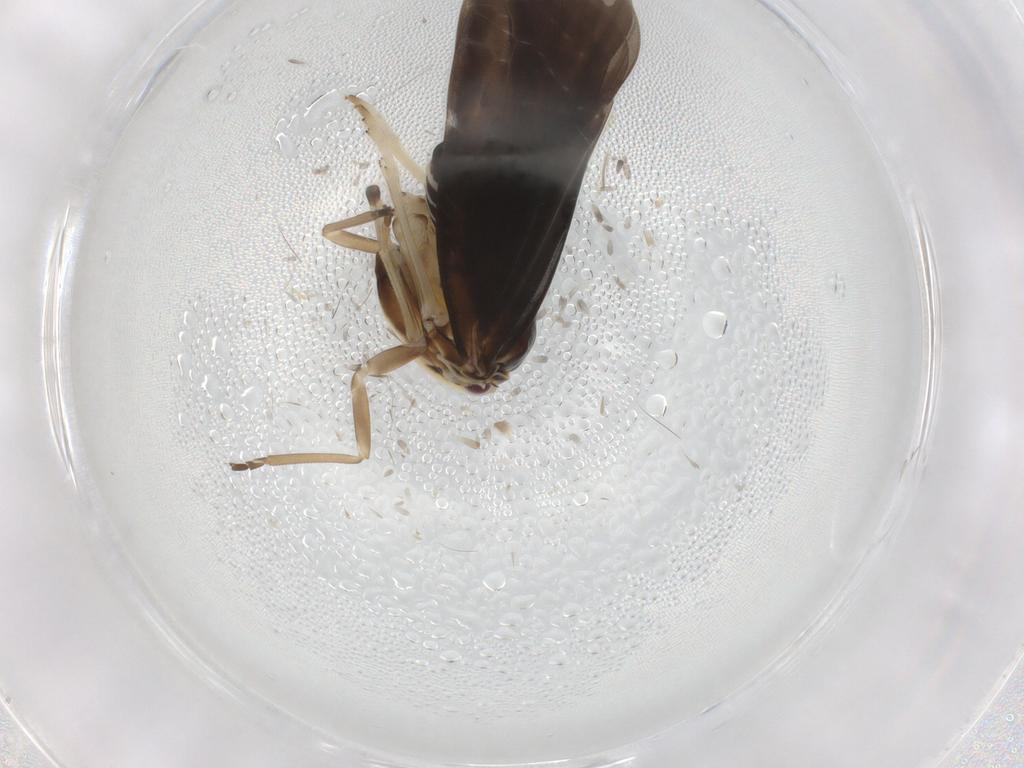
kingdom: Animalia
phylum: Arthropoda
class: Insecta
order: Hemiptera
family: Derbidae
